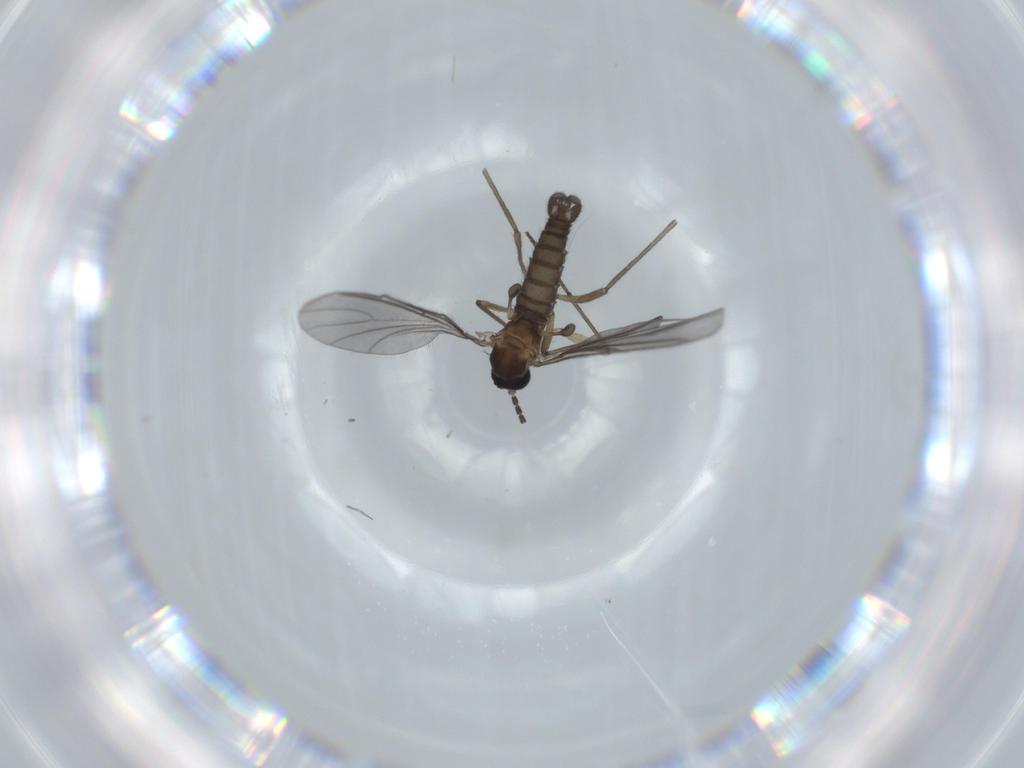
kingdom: Animalia
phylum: Arthropoda
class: Insecta
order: Diptera
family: Sciaridae
